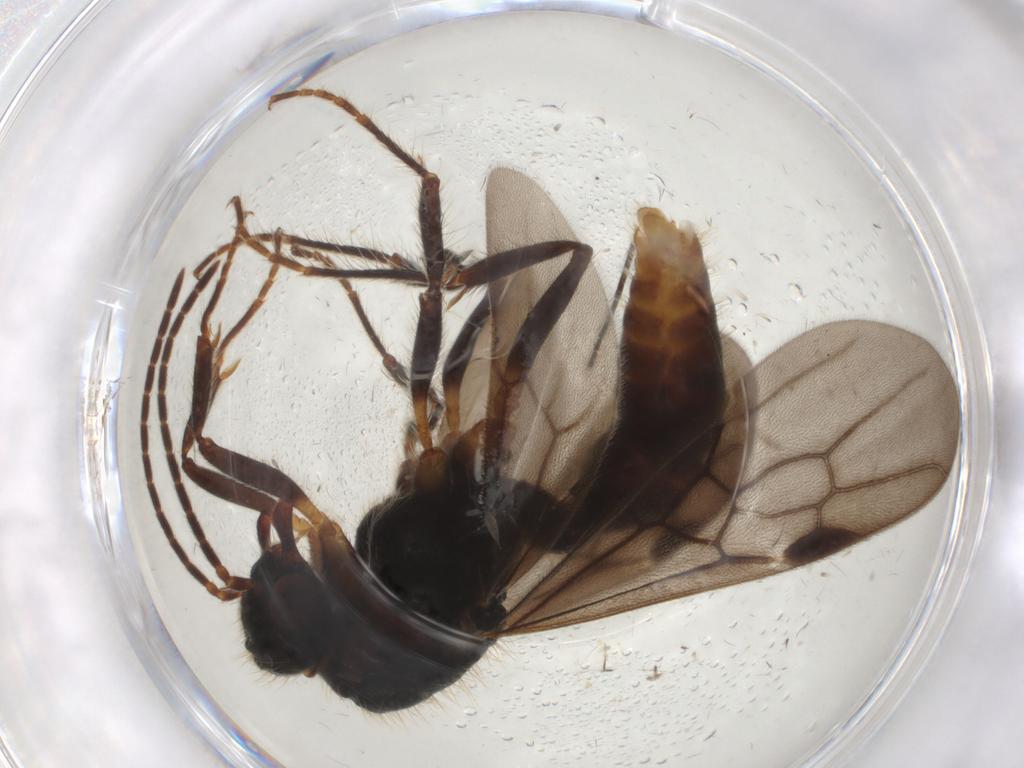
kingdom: Animalia
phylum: Arthropoda
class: Insecta
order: Hymenoptera
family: Formicidae
